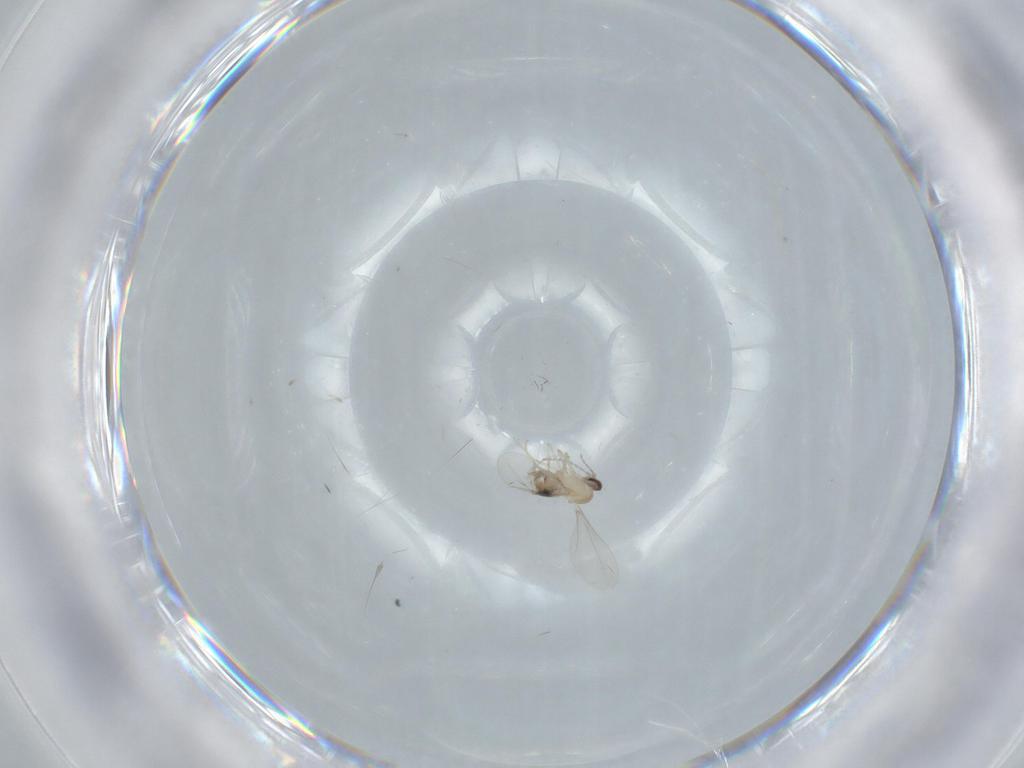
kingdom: Animalia
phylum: Arthropoda
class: Insecta
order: Diptera
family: Cecidomyiidae
